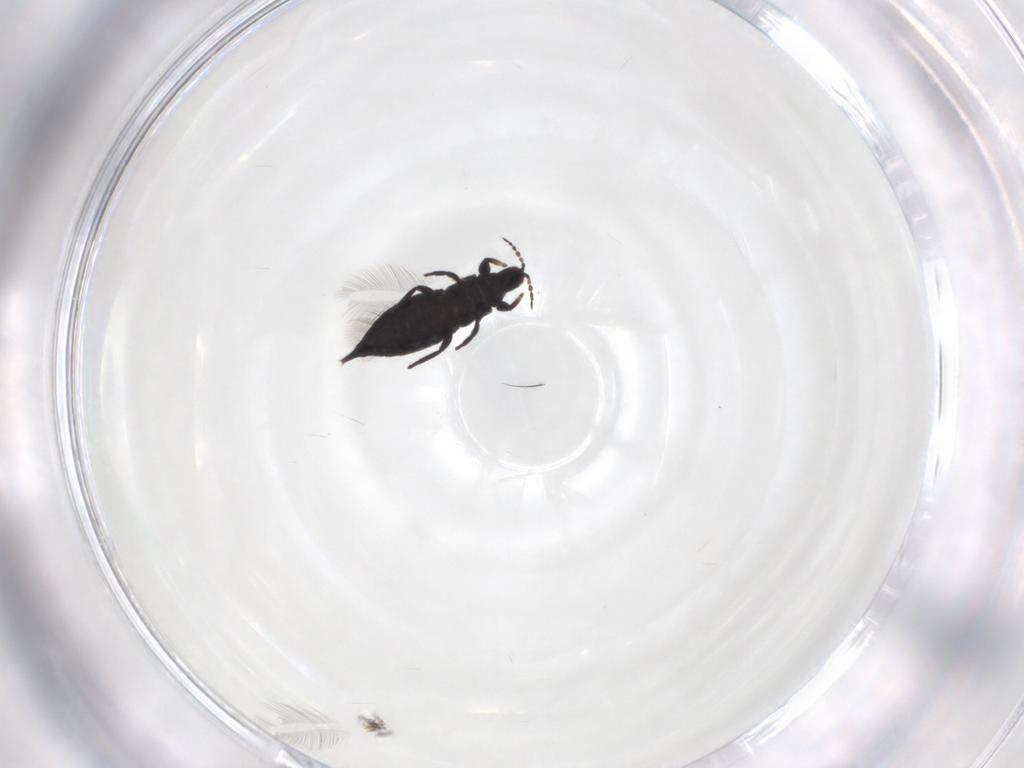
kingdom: Animalia
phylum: Arthropoda
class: Insecta
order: Thysanoptera
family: Phlaeothripidae
